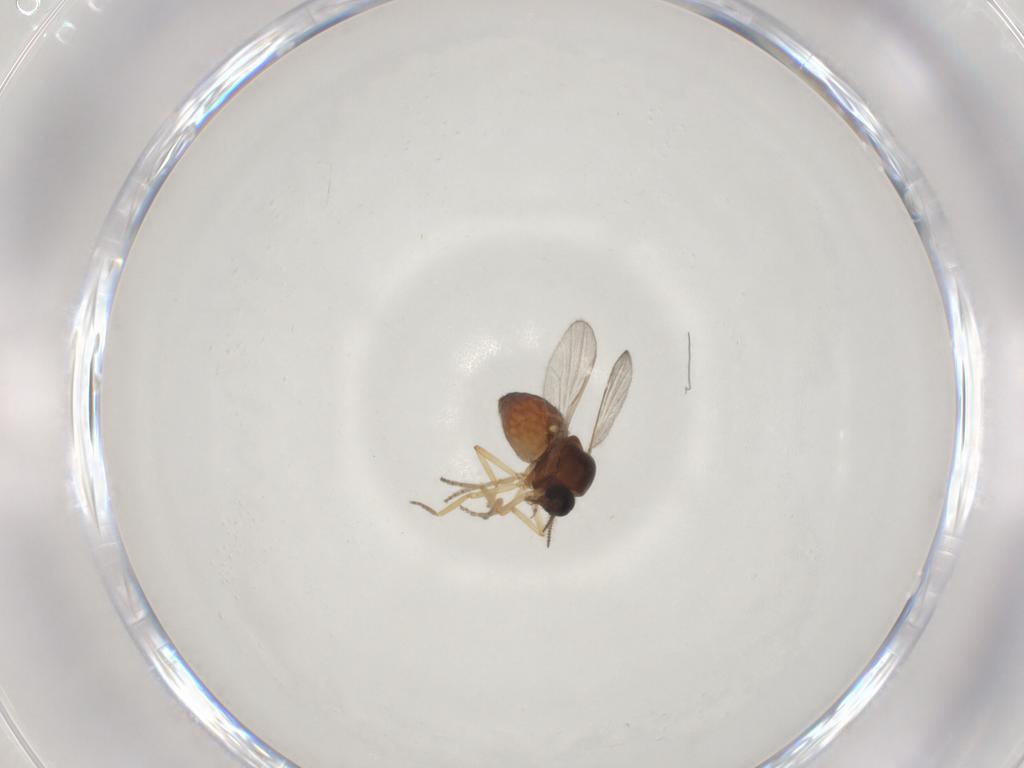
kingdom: Animalia
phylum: Arthropoda
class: Insecta
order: Diptera
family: Ceratopogonidae
